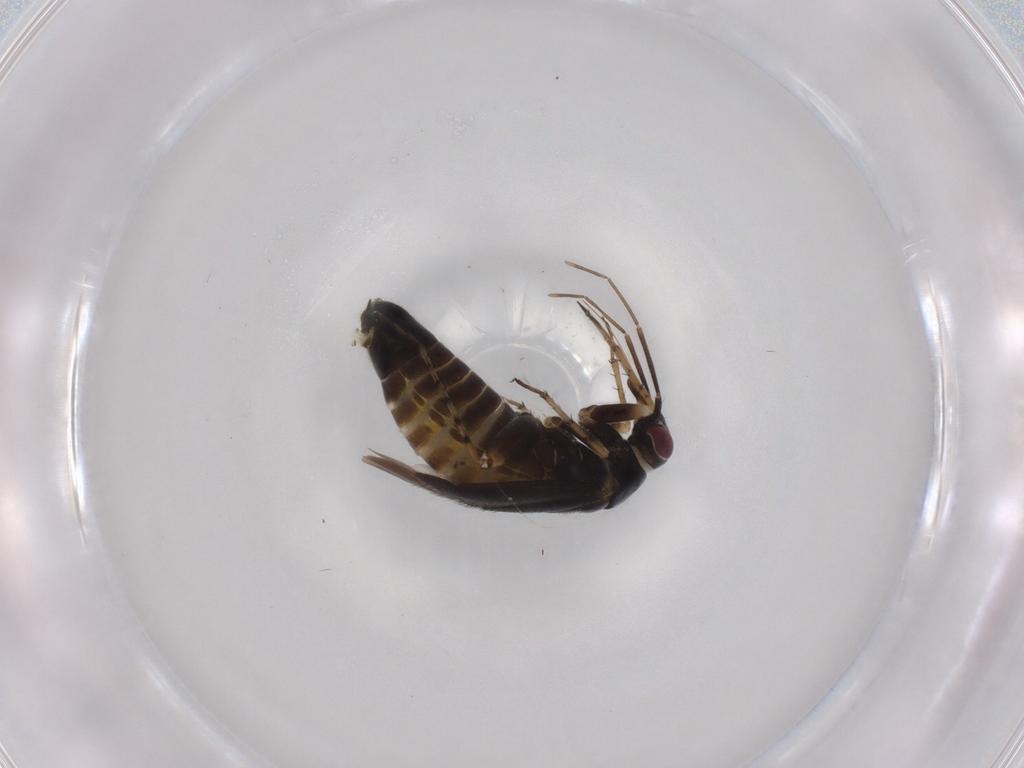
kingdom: Animalia
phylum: Arthropoda
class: Insecta
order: Hemiptera
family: Miridae
